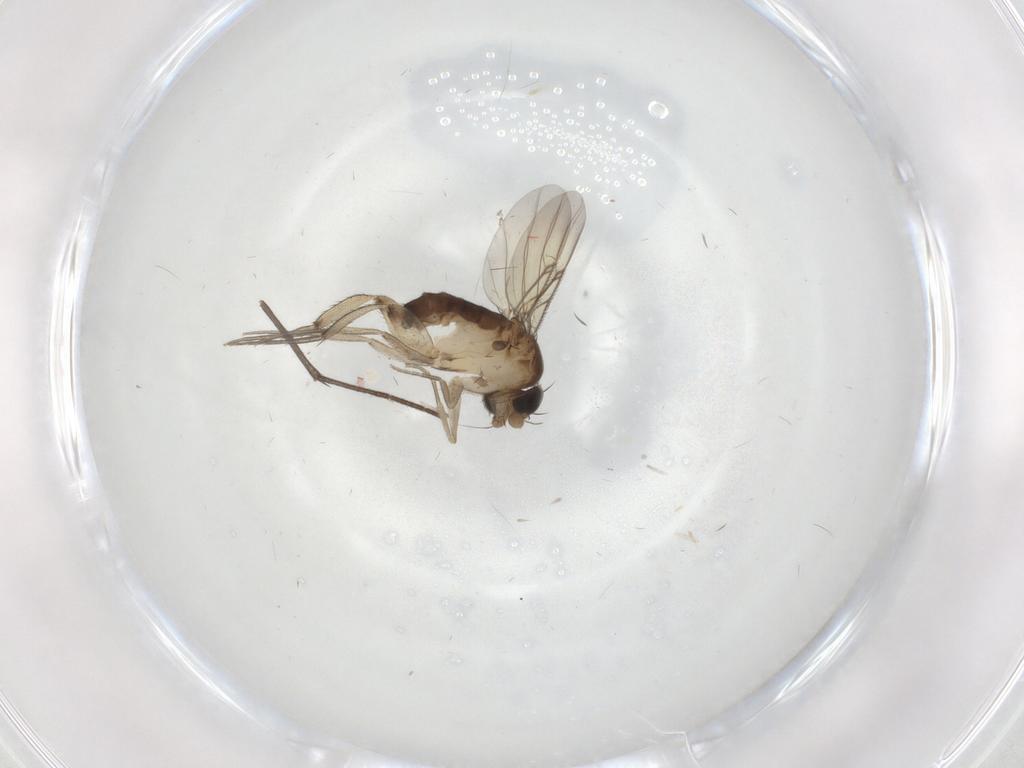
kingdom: Animalia
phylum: Arthropoda
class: Insecta
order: Diptera
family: Phoridae
